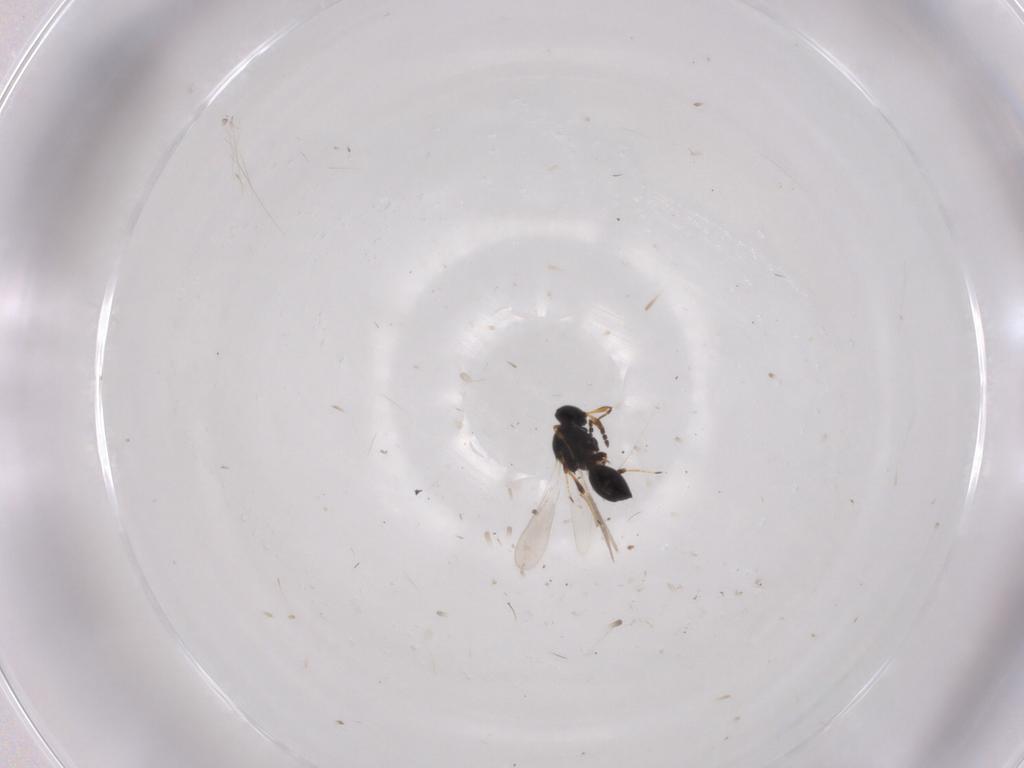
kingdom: Animalia
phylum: Arthropoda
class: Insecta
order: Hymenoptera
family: Platygastridae
